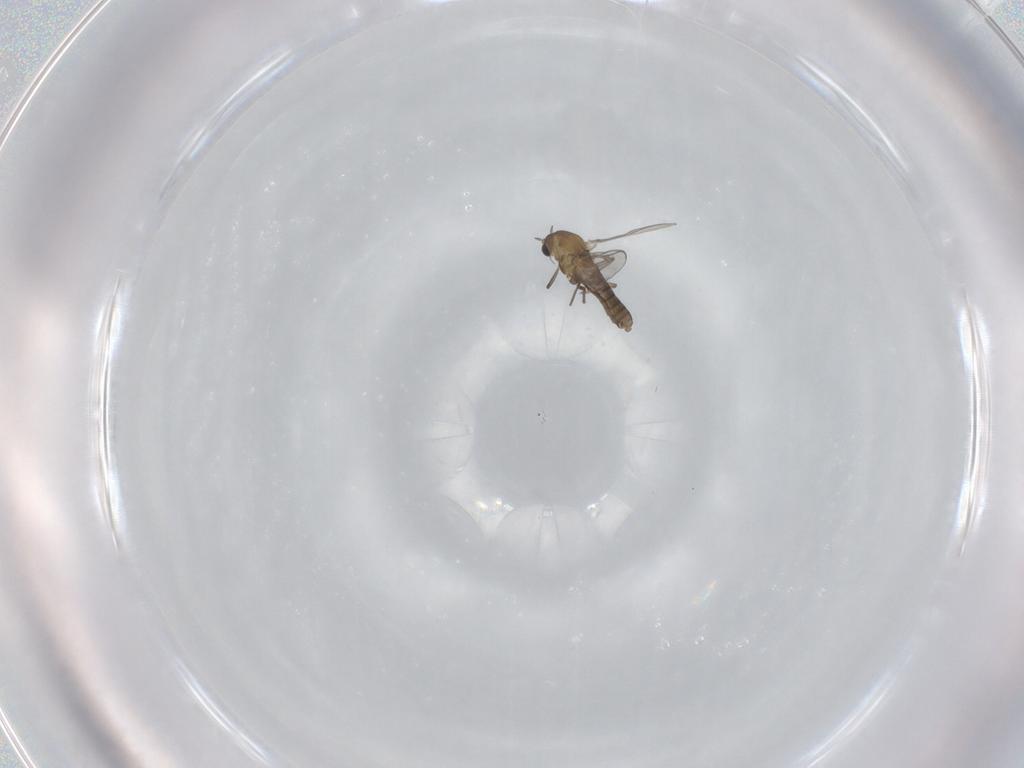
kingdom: Animalia
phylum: Arthropoda
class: Insecta
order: Diptera
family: Chironomidae
